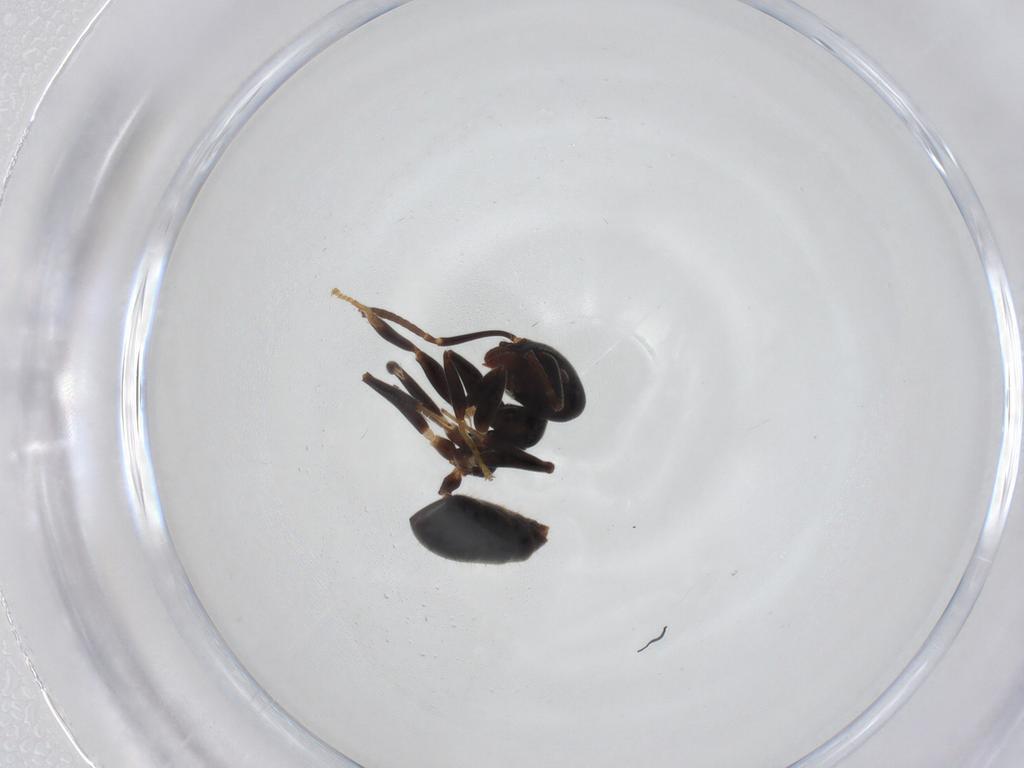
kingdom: Animalia
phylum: Arthropoda
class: Insecta
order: Hymenoptera
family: Formicidae
